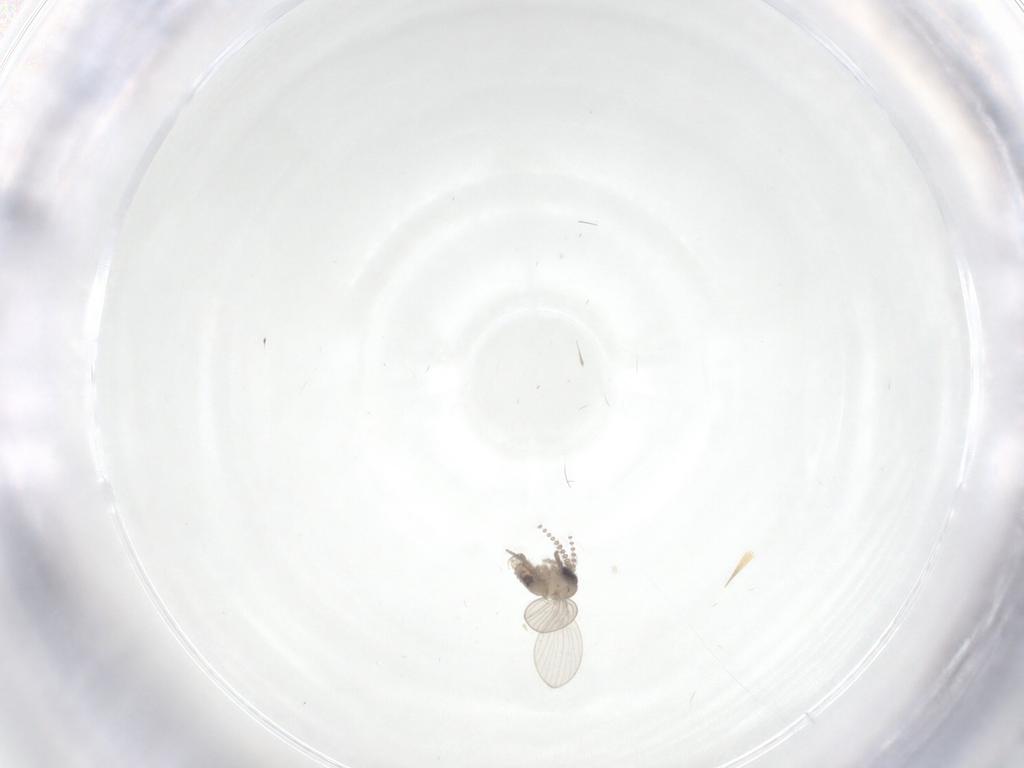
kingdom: Animalia
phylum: Arthropoda
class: Insecta
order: Diptera
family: Psychodidae
